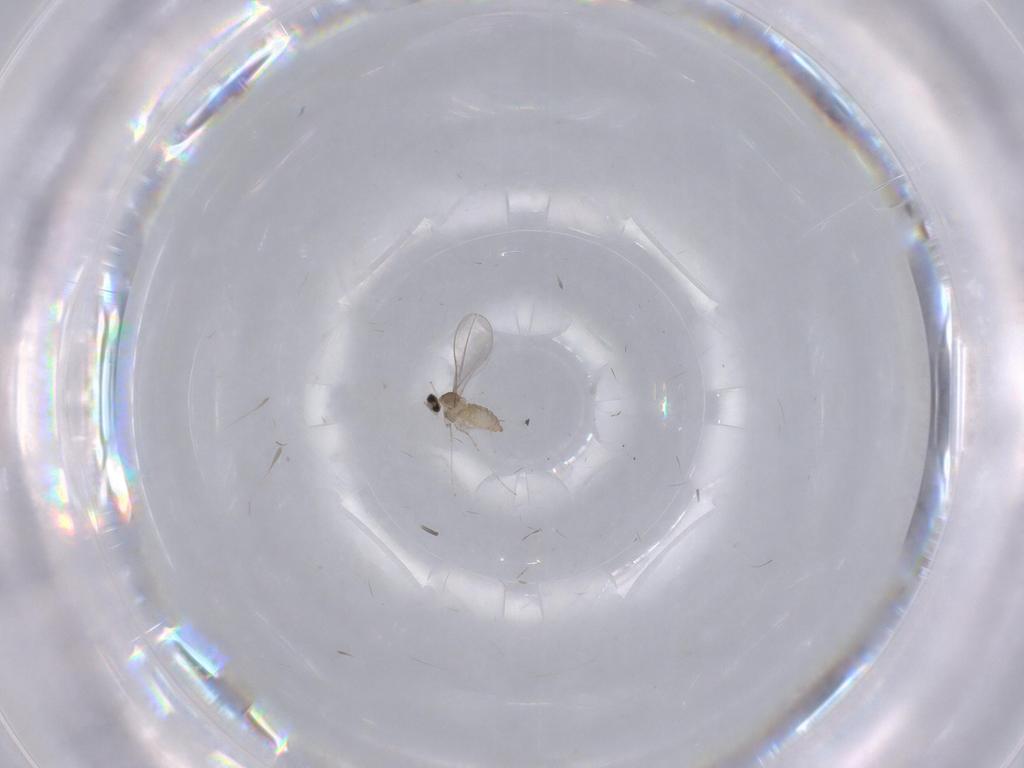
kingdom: Animalia
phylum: Arthropoda
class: Insecta
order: Diptera
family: Cecidomyiidae
